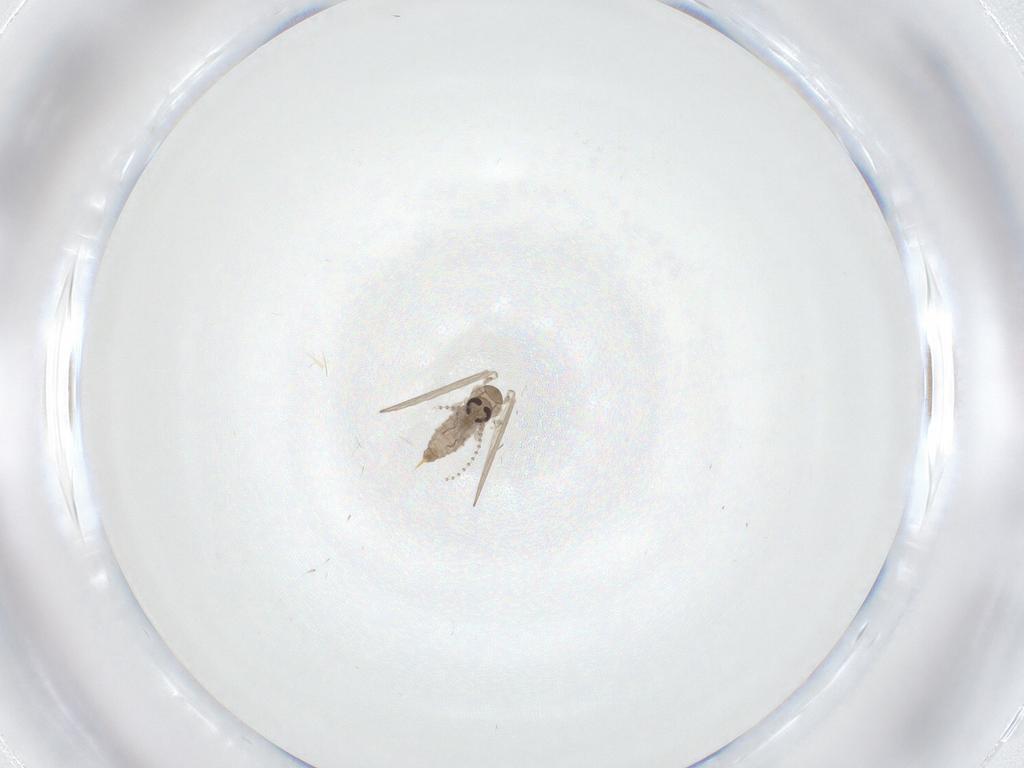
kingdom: Animalia
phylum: Arthropoda
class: Insecta
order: Diptera
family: Psychodidae
